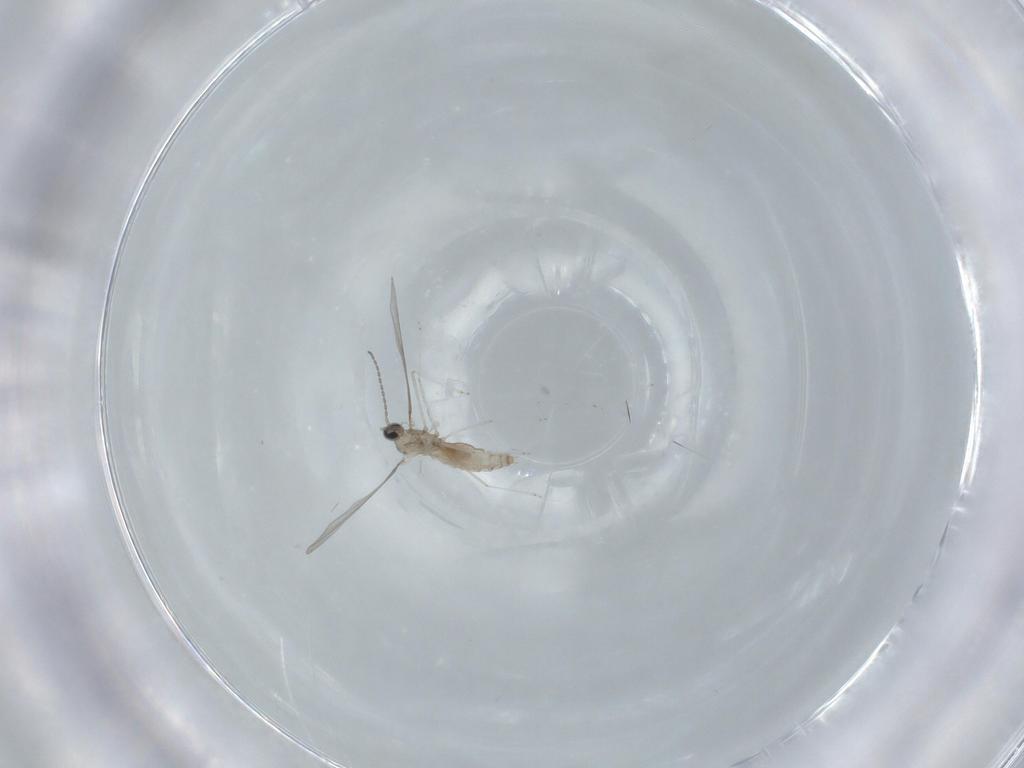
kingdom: Animalia
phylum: Arthropoda
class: Insecta
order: Diptera
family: Cecidomyiidae
